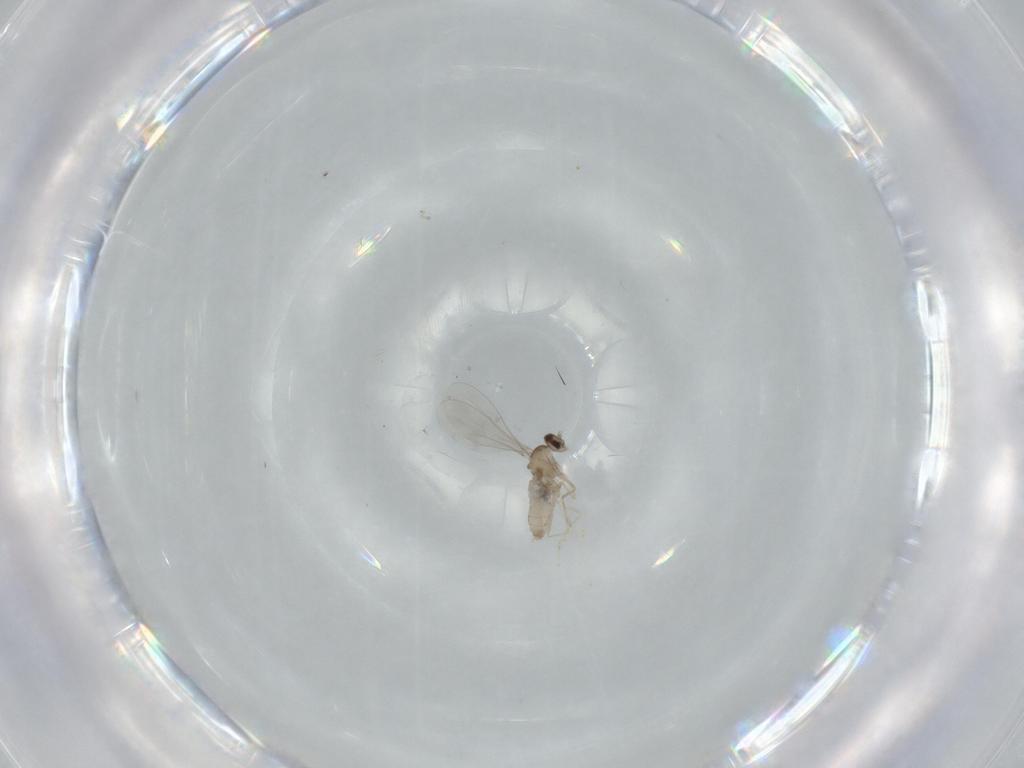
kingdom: Animalia
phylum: Arthropoda
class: Insecta
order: Diptera
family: Cecidomyiidae
